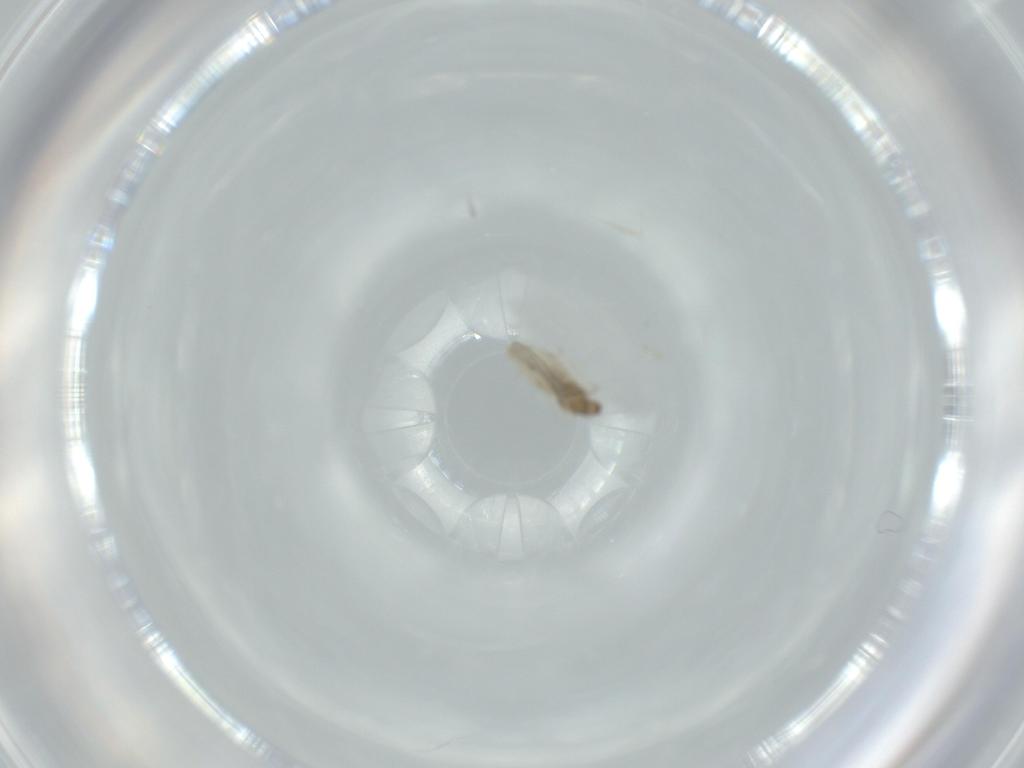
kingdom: Animalia
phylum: Arthropoda
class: Insecta
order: Diptera
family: Cecidomyiidae
